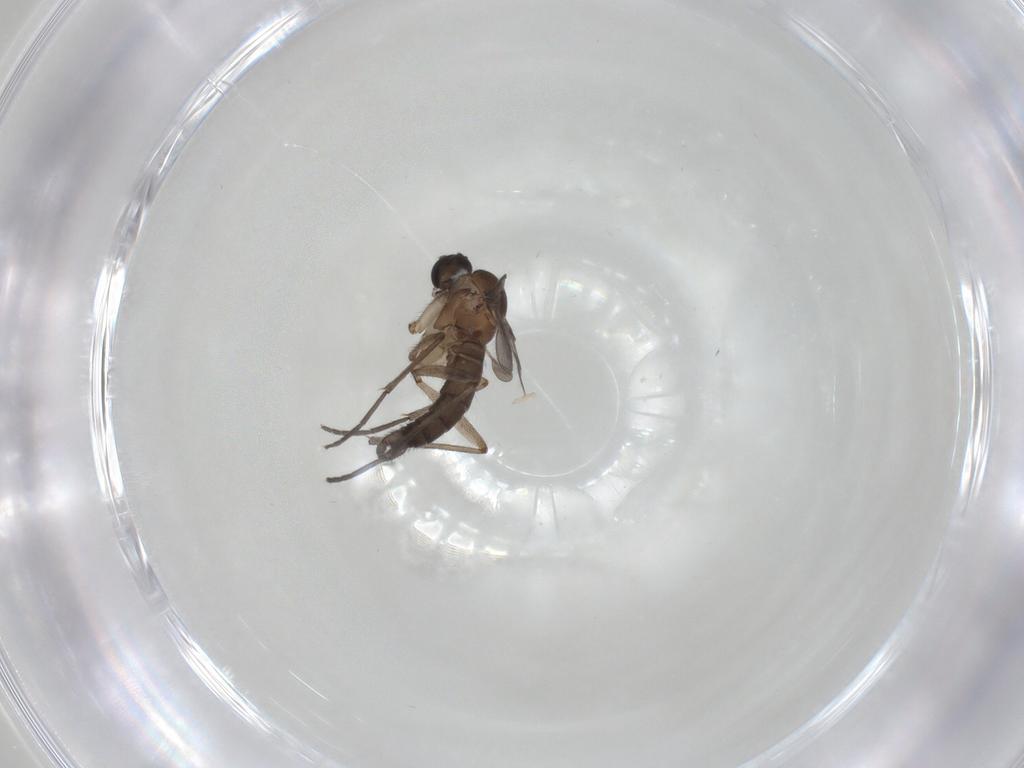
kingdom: Animalia
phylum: Arthropoda
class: Insecta
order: Diptera
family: Sciaridae
